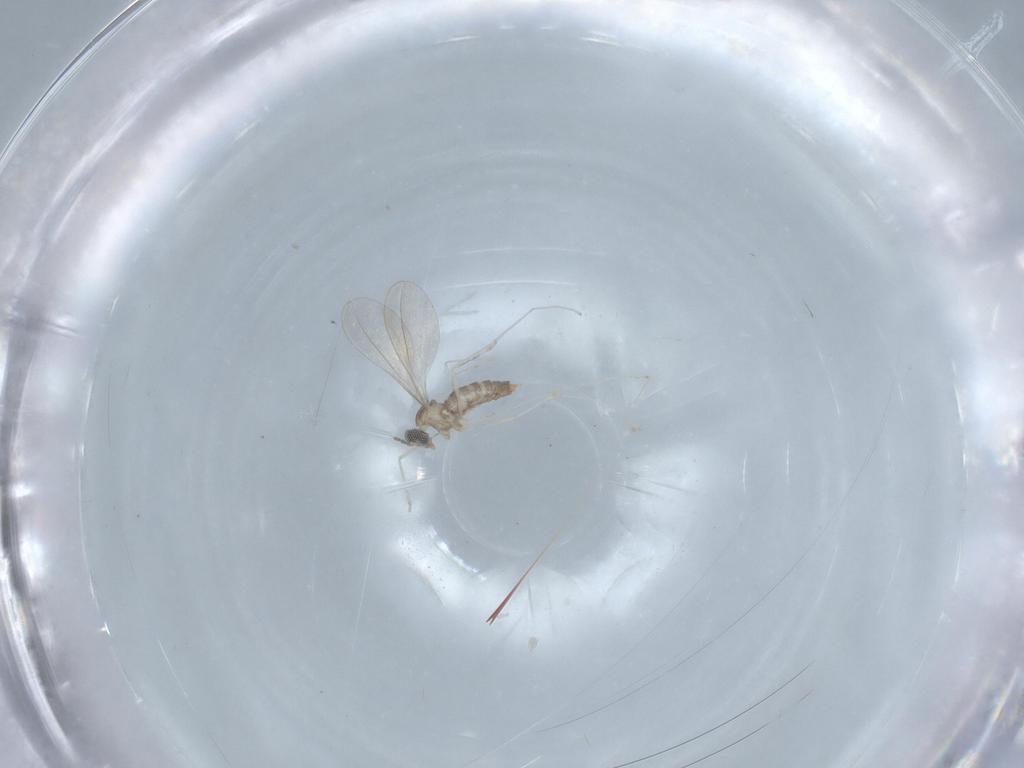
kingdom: Animalia
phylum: Arthropoda
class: Insecta
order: Diptera
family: Cecidomyiidae
